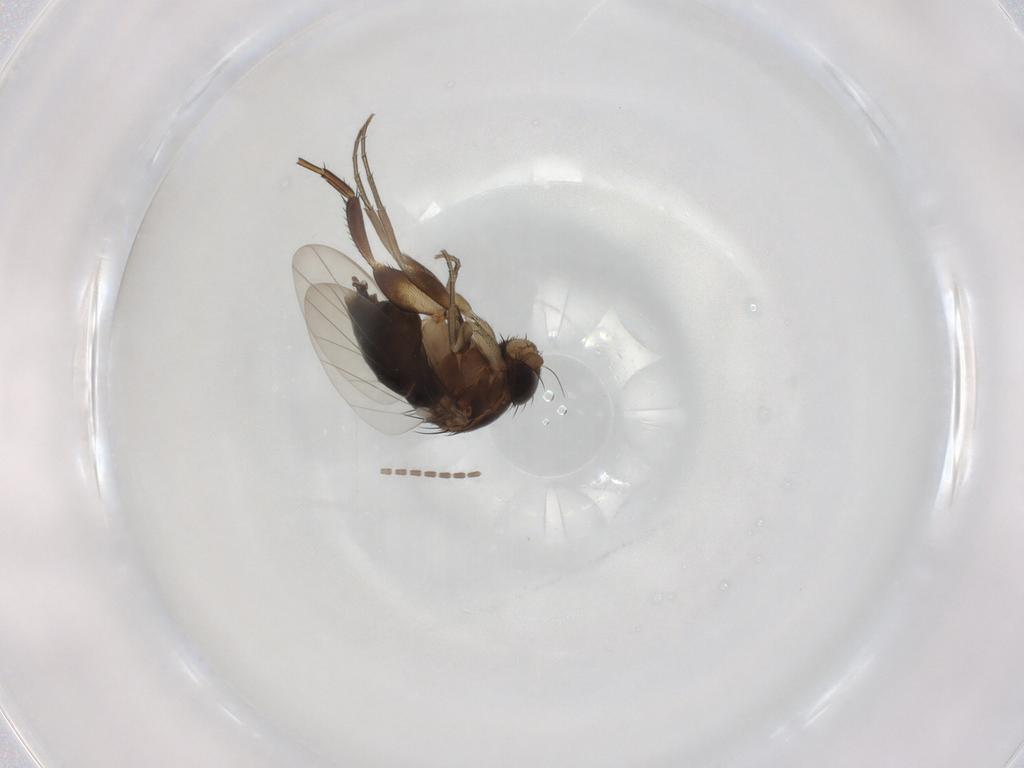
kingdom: Animalia
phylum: Arthropoda
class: Insecta
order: Diptera
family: Phoridae
